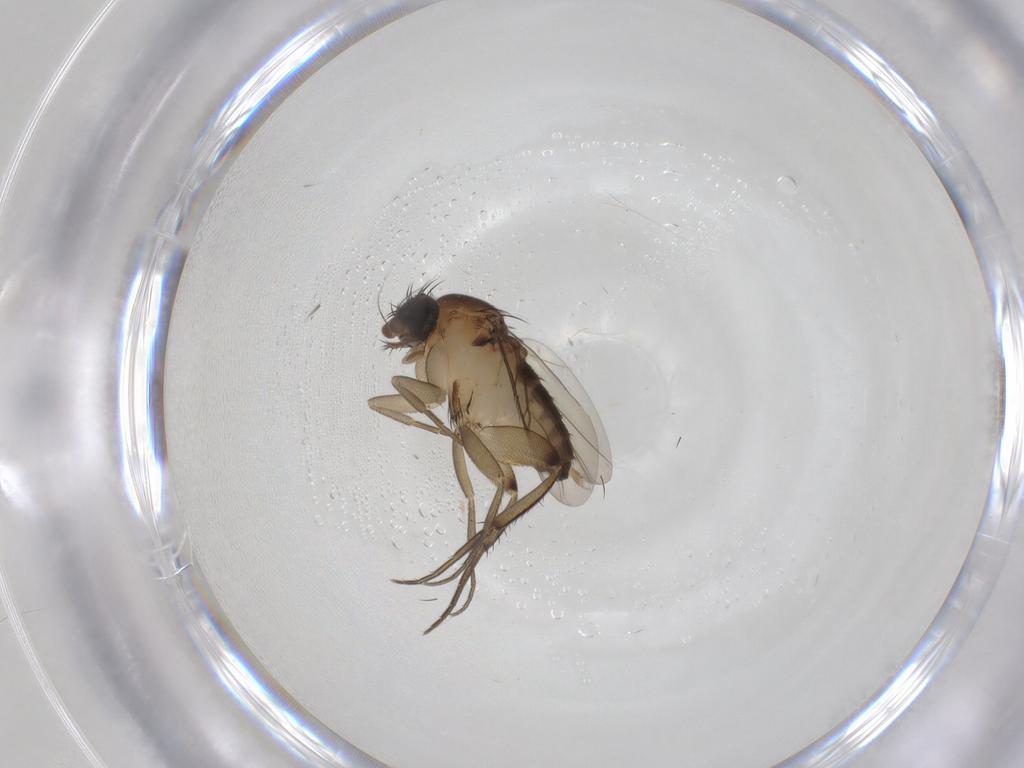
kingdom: Animalia
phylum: Arthropoda
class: Insecta
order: Diptera
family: Phoridae
